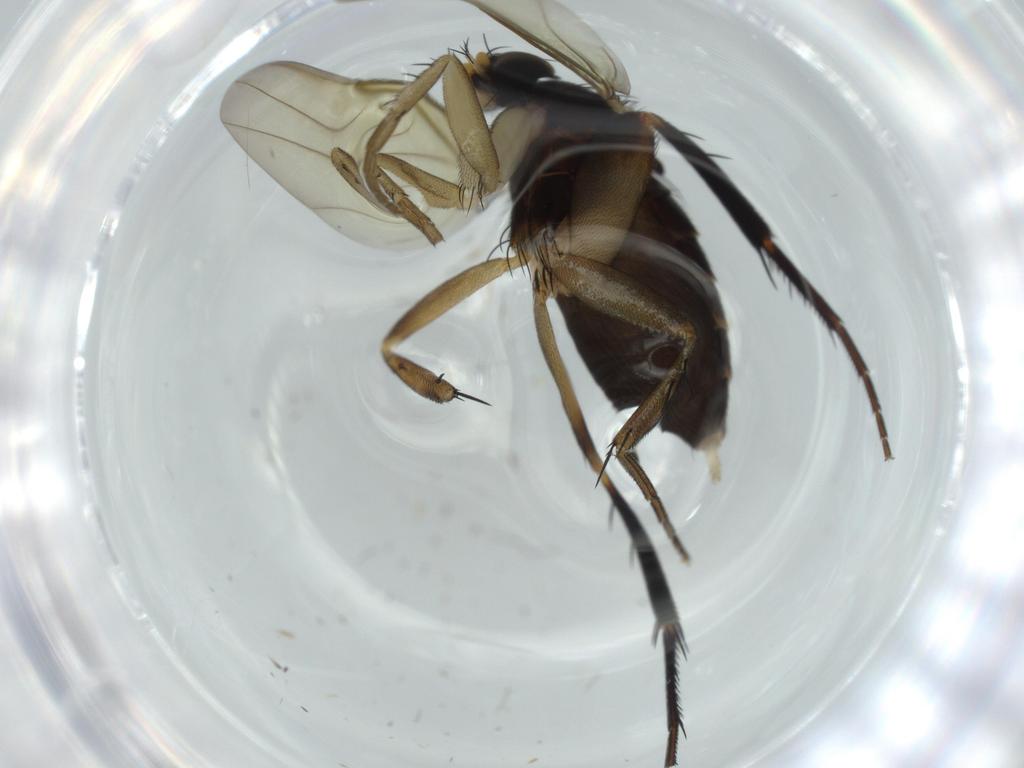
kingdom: Animalia
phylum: Arthropoda
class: Insecta
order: Diptera
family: Phoridae
